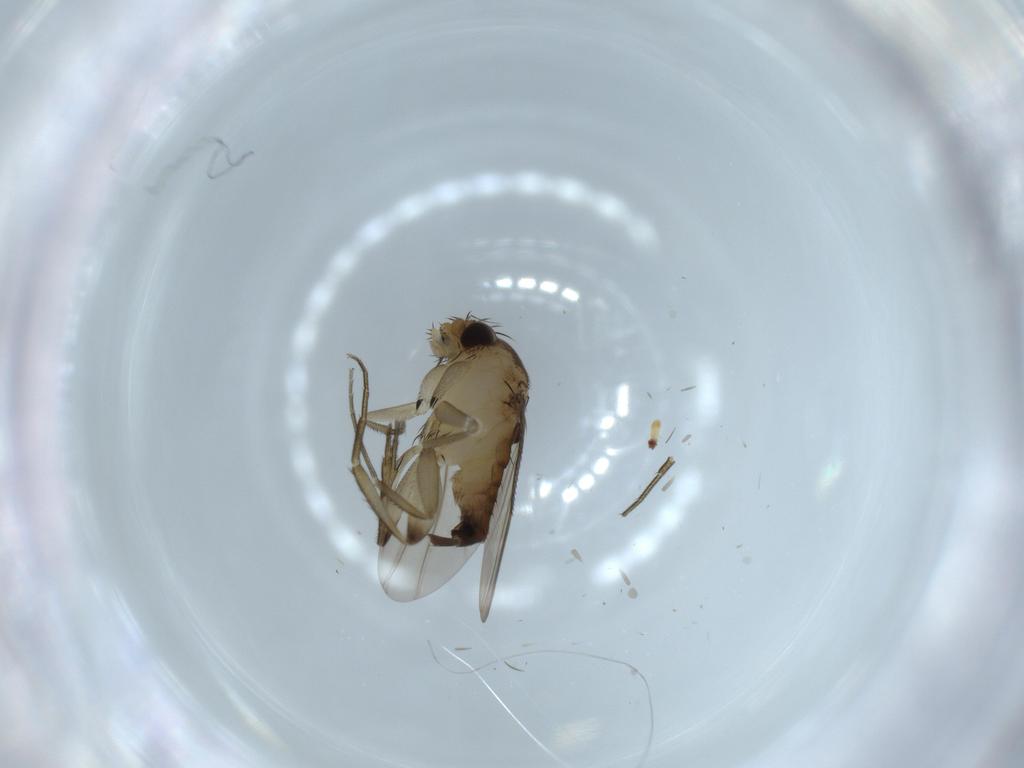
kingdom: Animalia
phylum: Arthropoda
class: Insecta
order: Diptera
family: Phoridae
